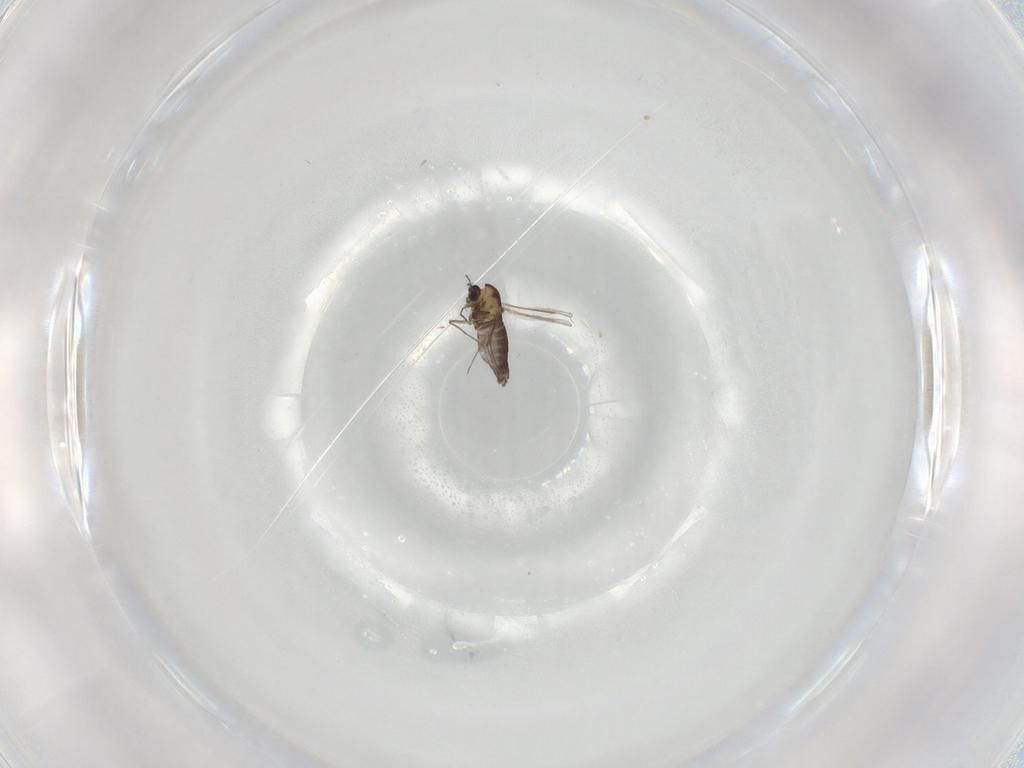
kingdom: Animalia
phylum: Arthropoda
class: Insecta
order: Diptera
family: Chironomidae
